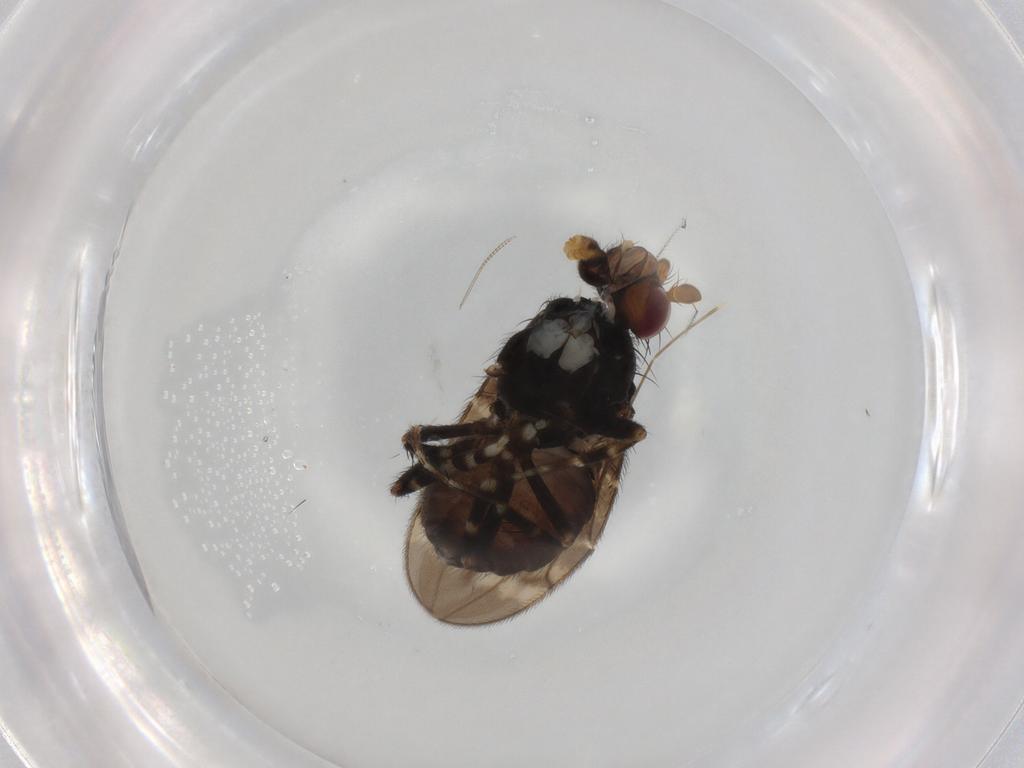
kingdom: Animalia
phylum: Arthropoda
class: Insecta
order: Diptera
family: Sphaeroceridae
